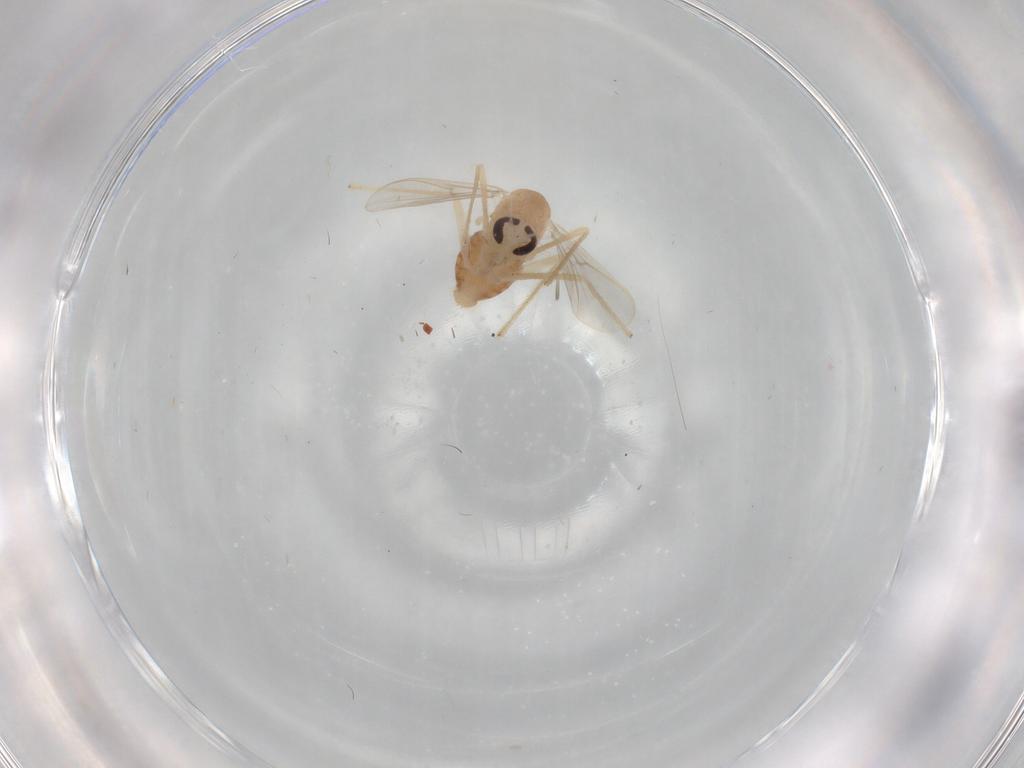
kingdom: Animalia
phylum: Arthropoda
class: Insecta
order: Diptera
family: Chironomidae
